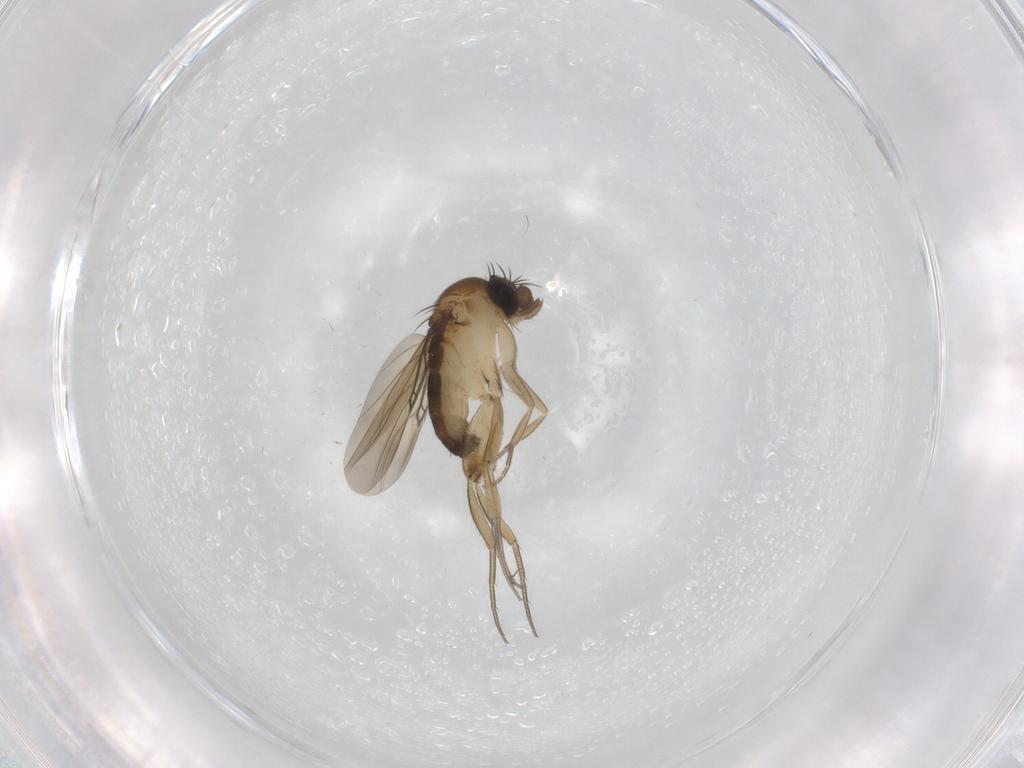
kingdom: Animalia
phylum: Arthropoda
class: Insecta
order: Diptera
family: Phoridae
